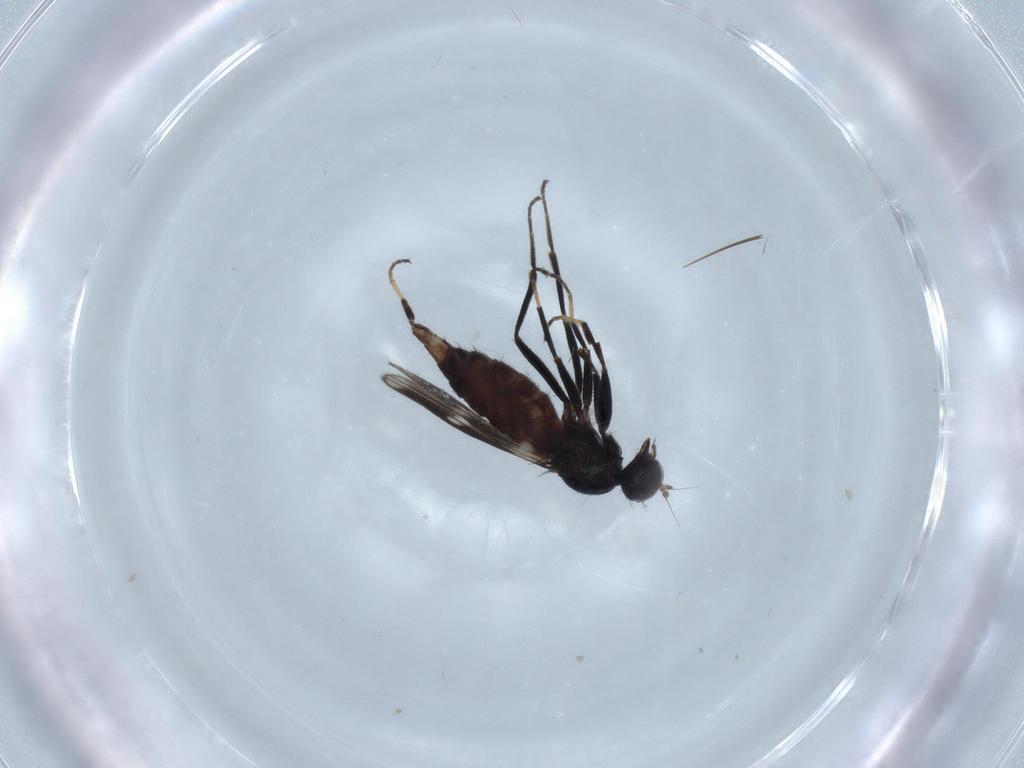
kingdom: Animalia
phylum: Arthropoda
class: Insecta
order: Diptera
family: Hybotidae
